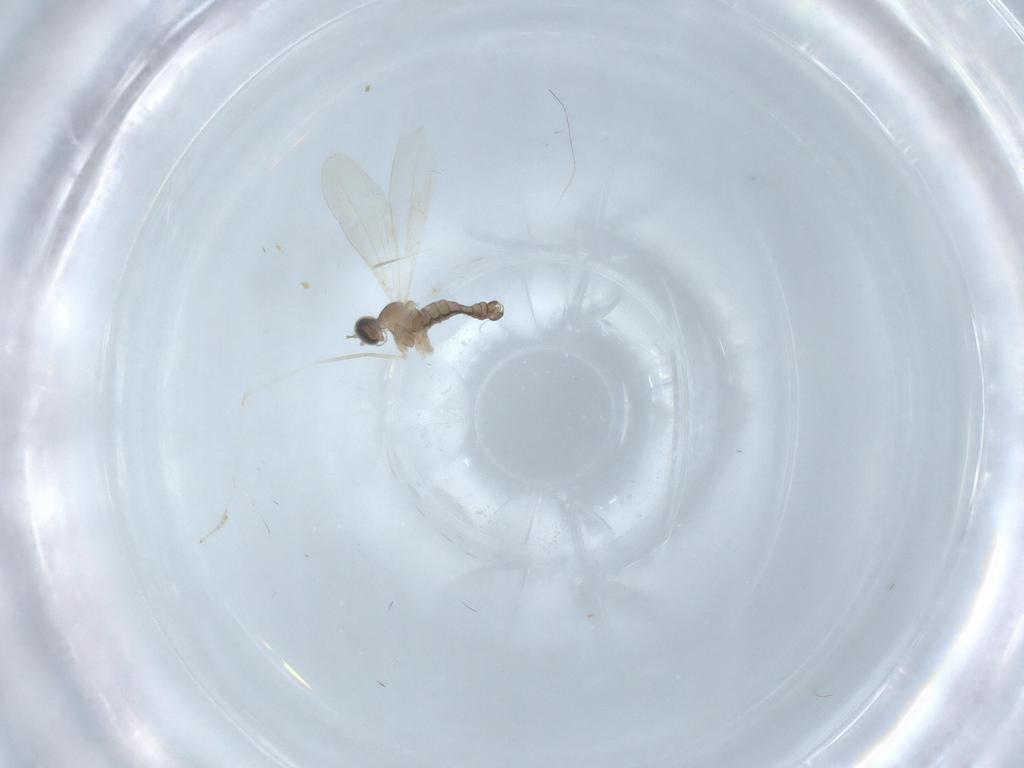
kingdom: Animalia
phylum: Arthropoda
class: Insecta
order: Diptera
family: Cecidomyiidae
